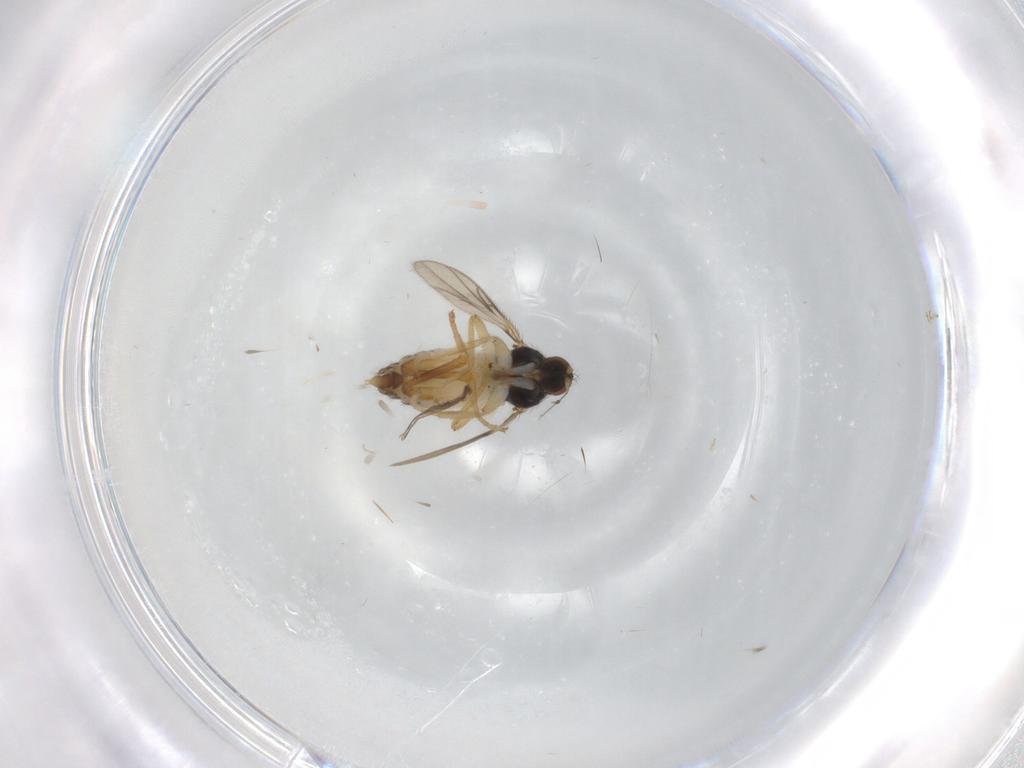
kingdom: Animalia
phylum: Arthropoda
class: Insecta
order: Diptera
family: Hybotidae
